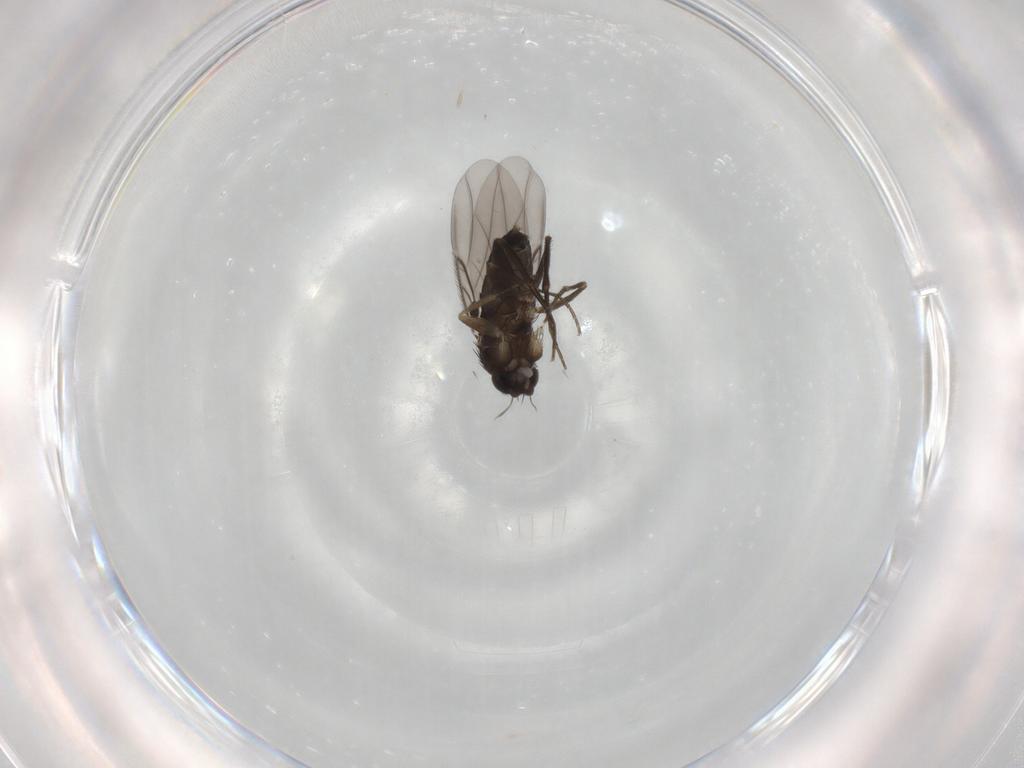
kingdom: Animalia
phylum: Arthropoda
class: Insecta
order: Diptera
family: Phoridae
